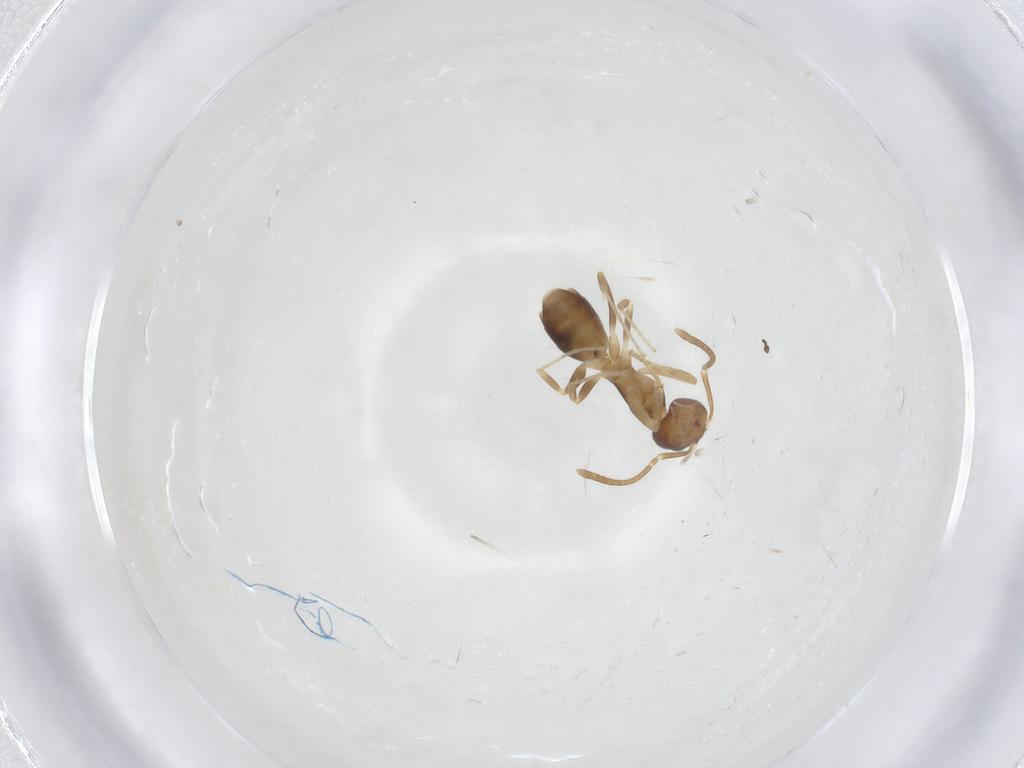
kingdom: Animalia
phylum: Arthropoda
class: Insecta
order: Hymenoptera
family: Formicidae
